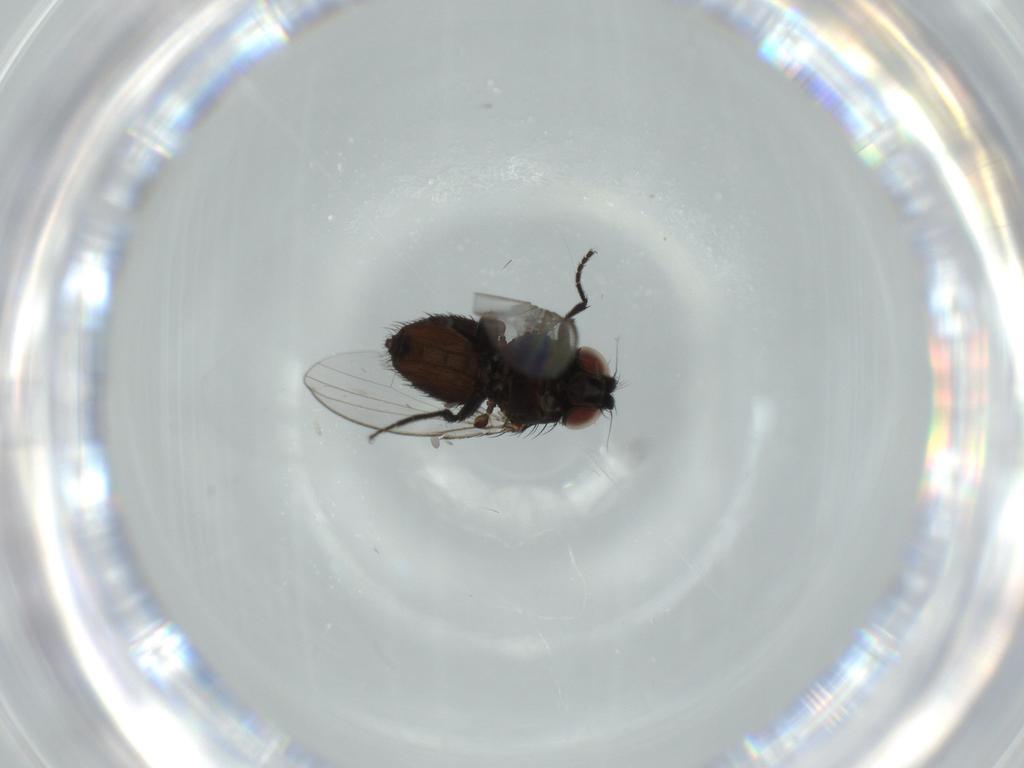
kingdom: Animalia
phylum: Arthropoda
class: Insecta
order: Diptera
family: Milichiidae
